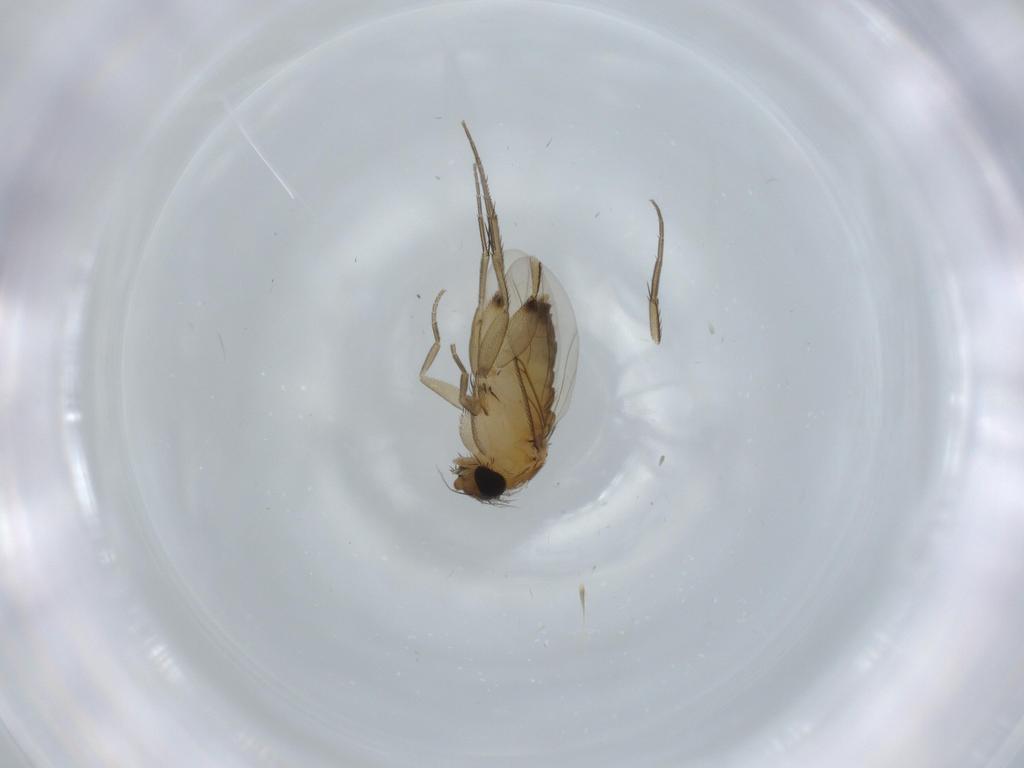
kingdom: Animalia
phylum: Arthropoda
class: Insecta
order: Diptera
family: Phoridae
